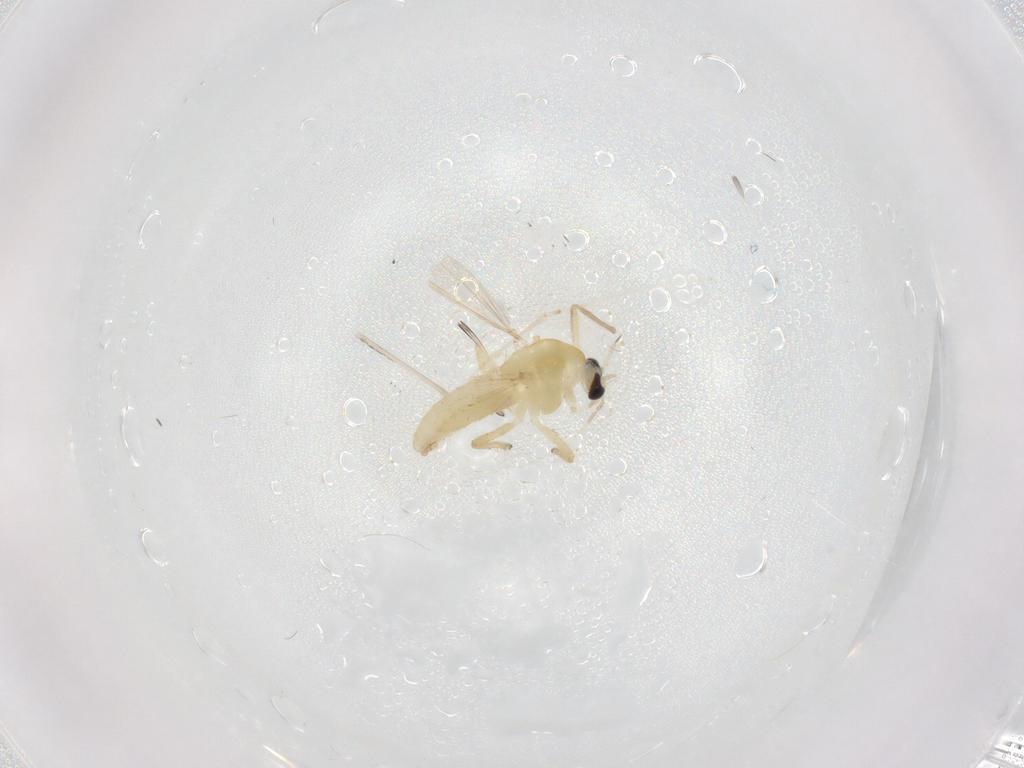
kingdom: Animalia
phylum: Arthropoda
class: Insecta
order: Diptera
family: Chironomidae
